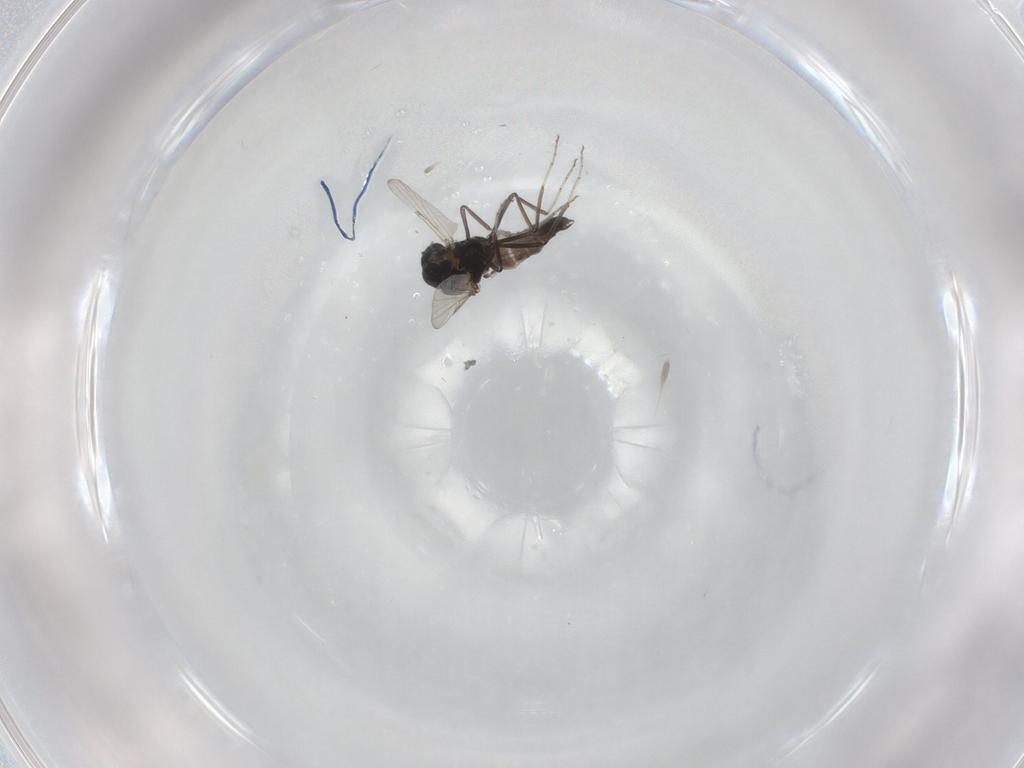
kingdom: Animalia
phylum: Arthropoda
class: Insecta
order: Diptera
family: Ceratopogonidae
